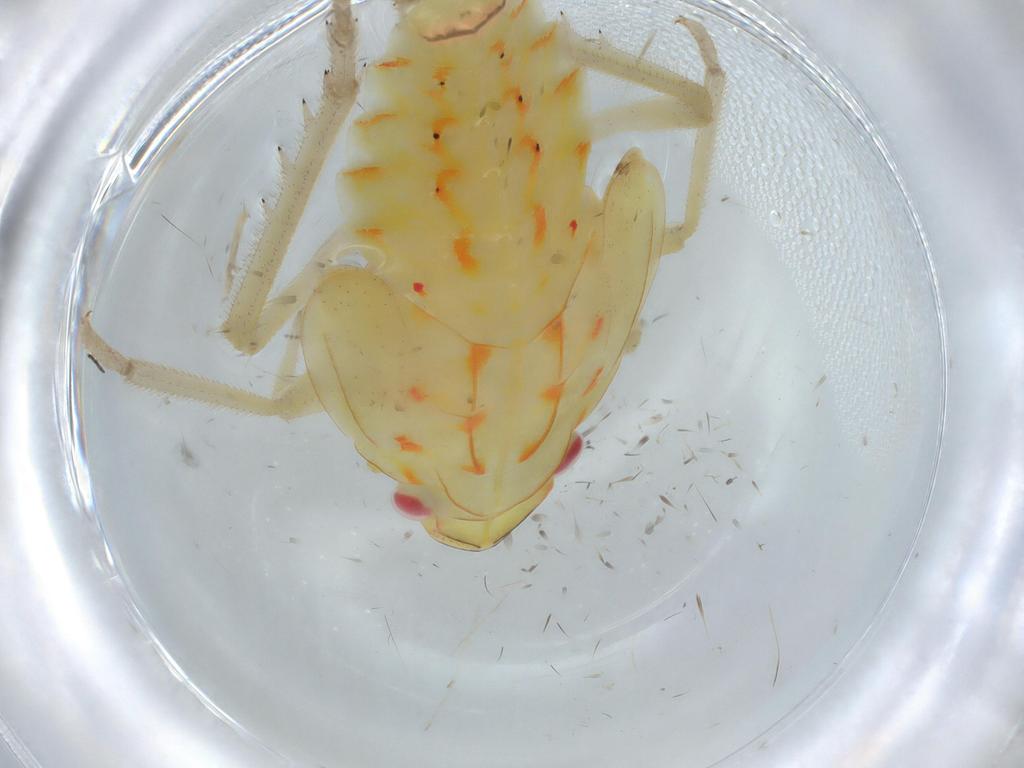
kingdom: Animalia
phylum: Arthropoda
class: Insecta
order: Hemiptera
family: Tropiduchidae
